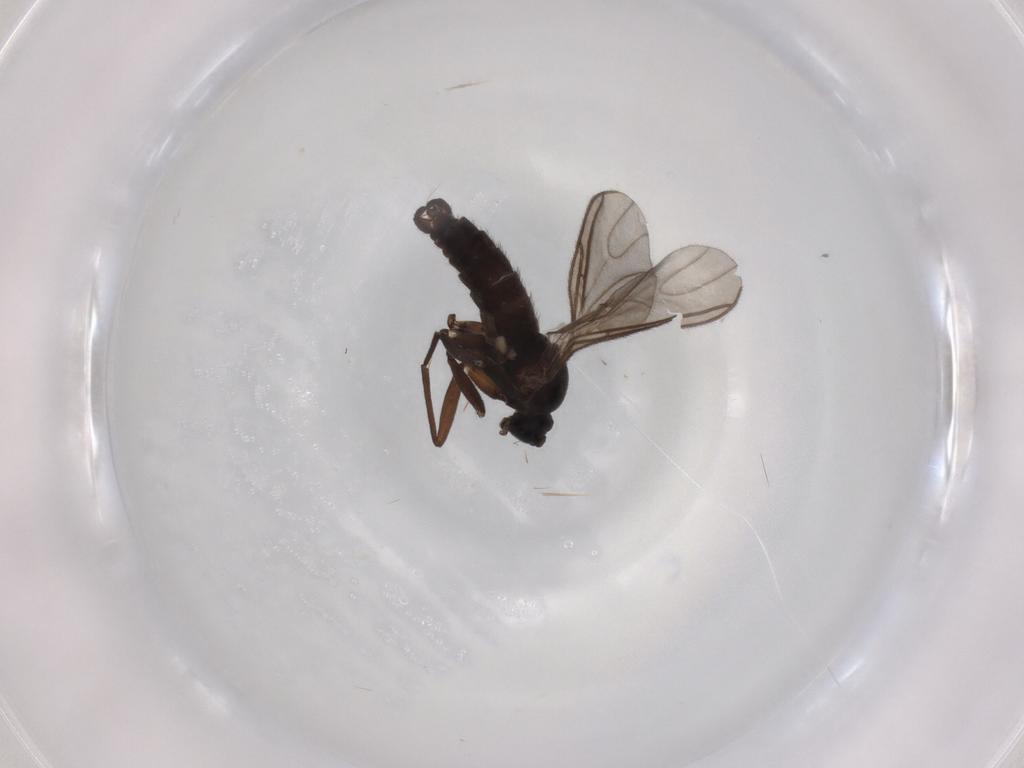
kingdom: Animalia
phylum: Arthropoda
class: Insecta
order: Diptera
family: Sciaridae
